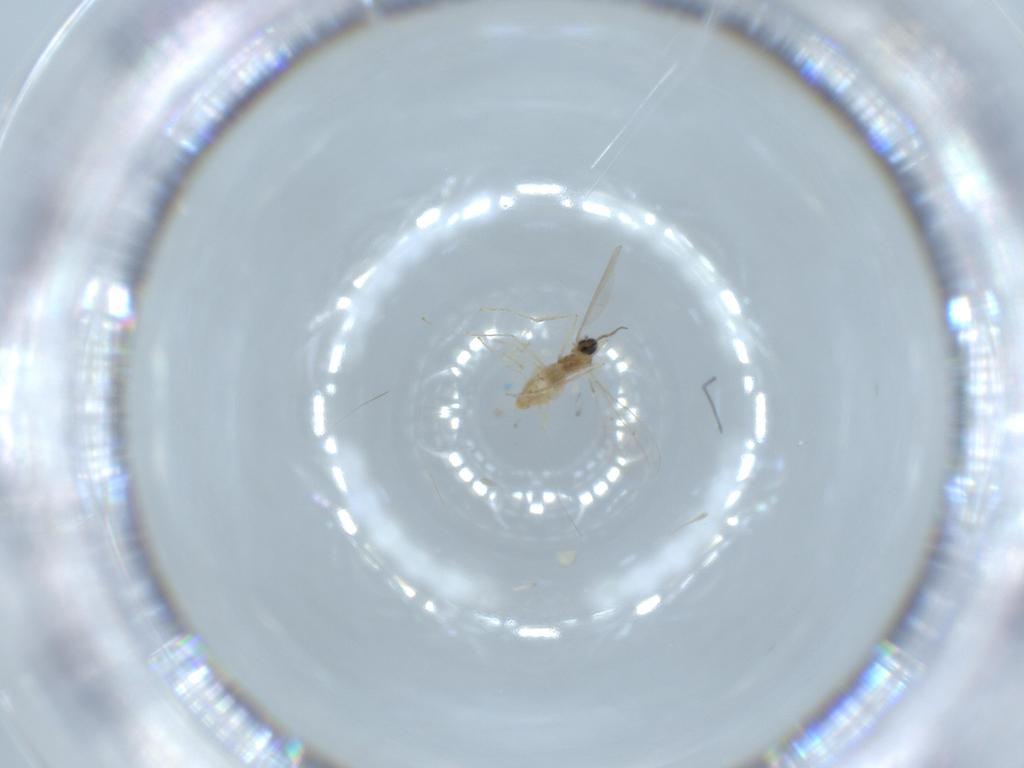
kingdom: Animalia
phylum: Arthropoda
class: Insecta
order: Diptera
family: Cecidomyiidae
